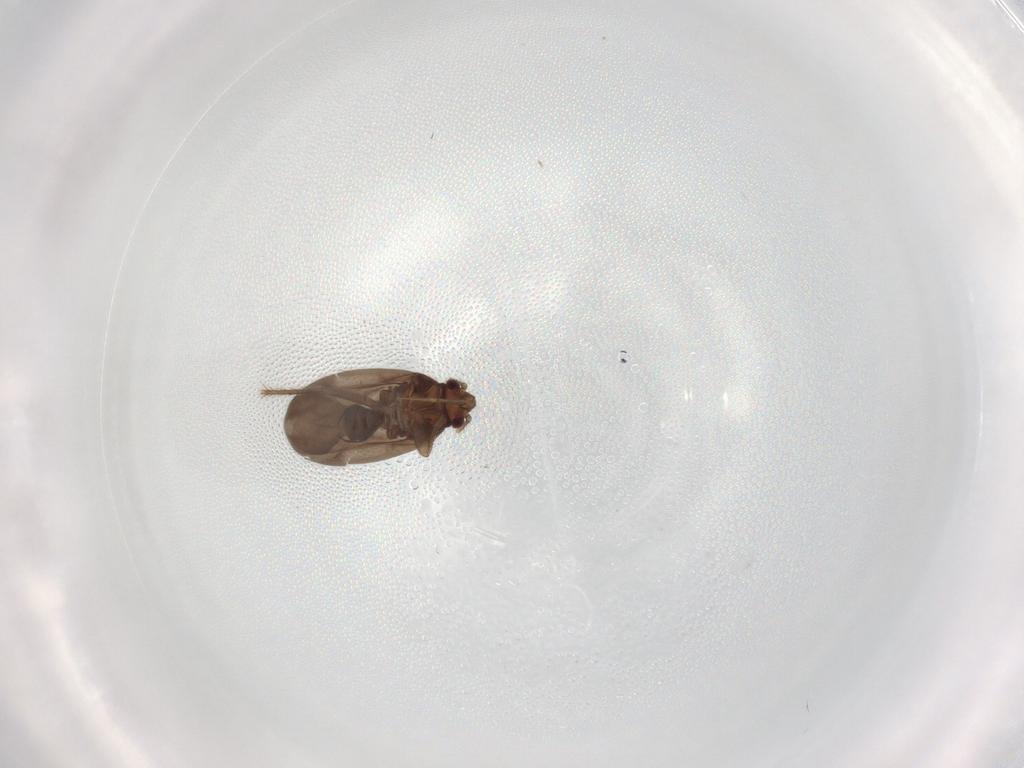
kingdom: Animalia
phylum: Arthropoda
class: Insecta
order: Hemiptera
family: Ceratocombidae
